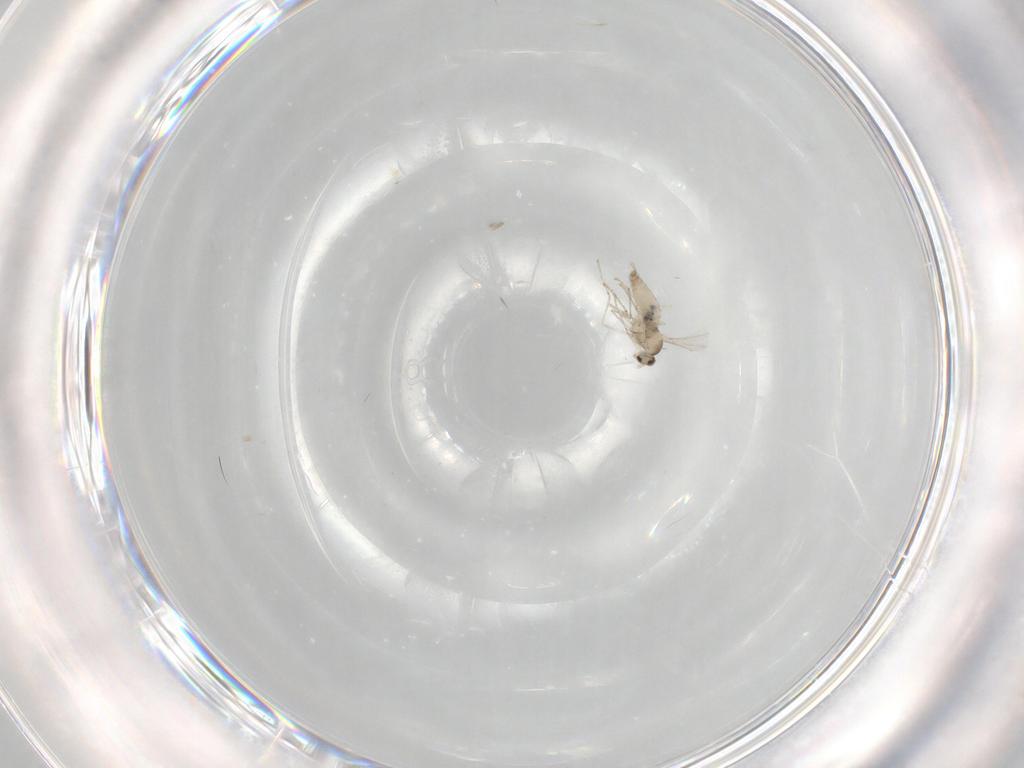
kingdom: Animalia
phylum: Arthropoda
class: Insecta
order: Diptera
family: Cecidomyiidae
